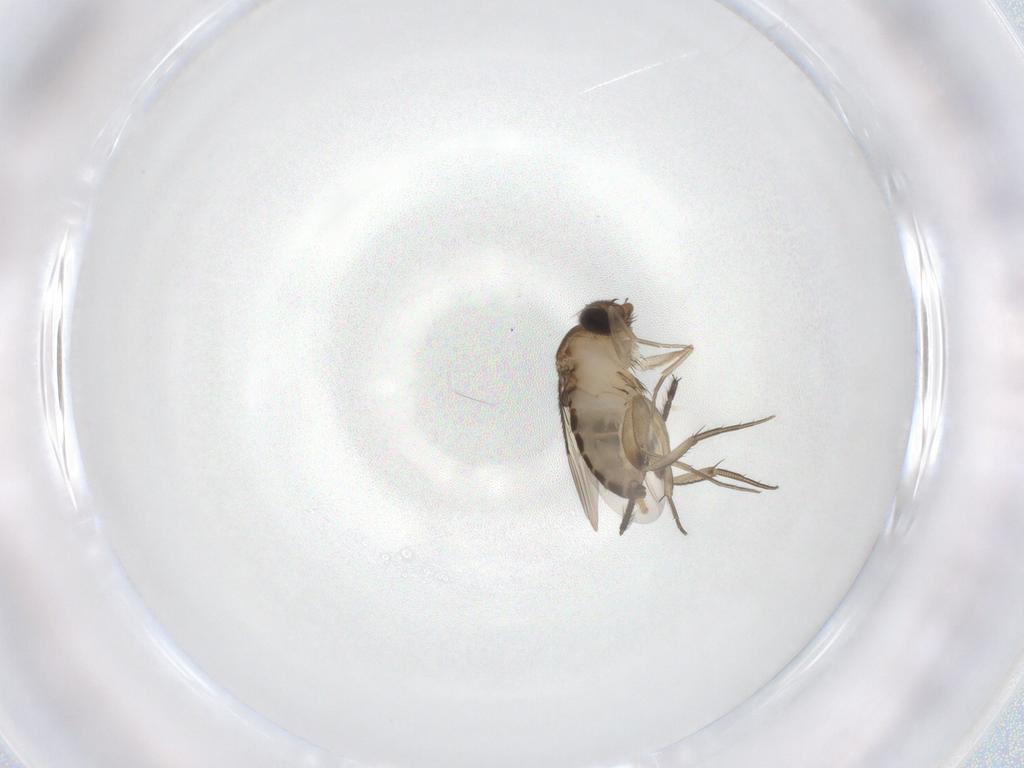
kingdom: Animalia
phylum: Arthropoda
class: Insecta
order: Diptera
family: Phoridae
